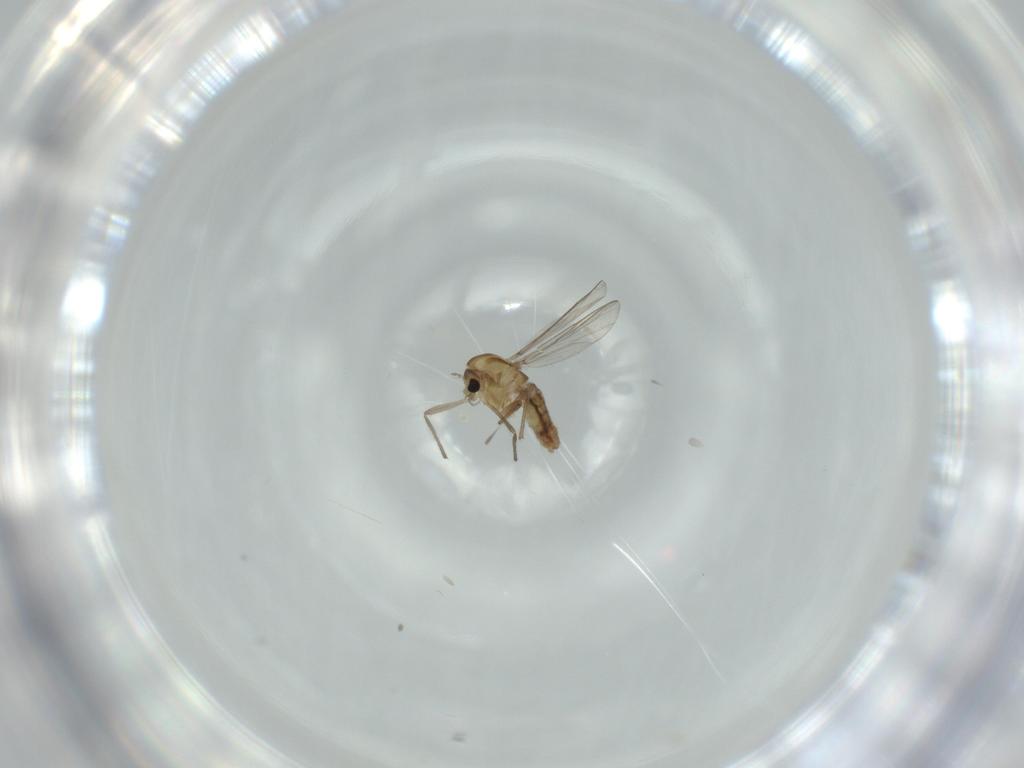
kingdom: Animalia
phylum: Arthropoda
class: Insecta
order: Diptera
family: Chironomidae
